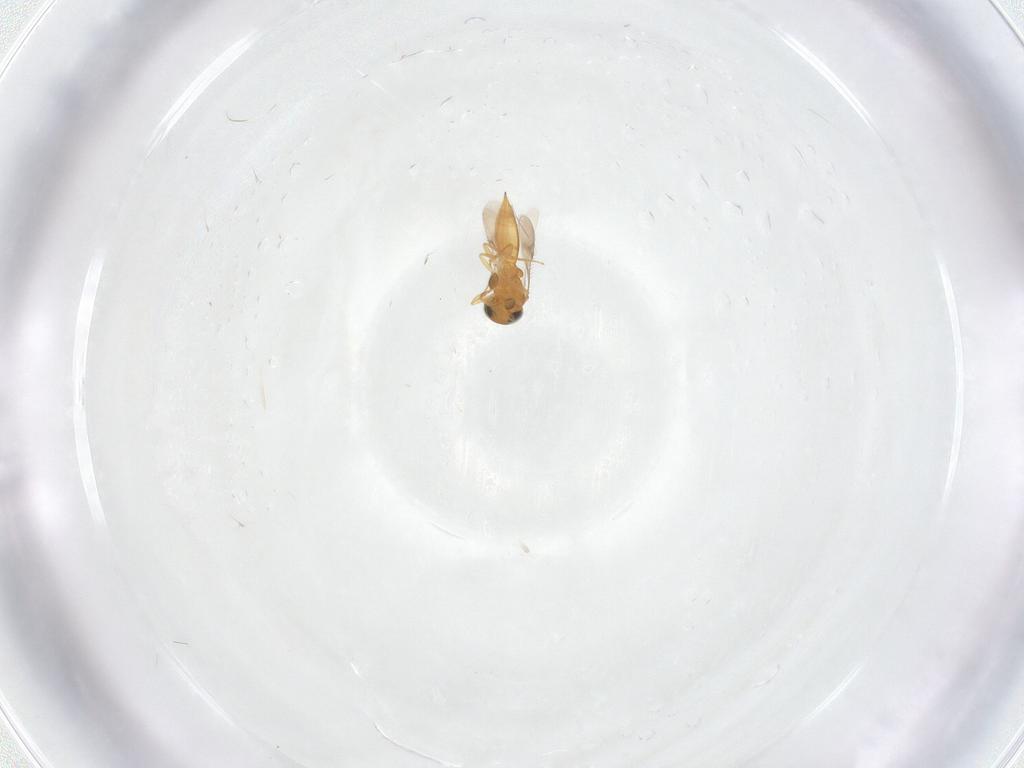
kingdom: Animalia
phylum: Arthropoda
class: Insecta
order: Hymenoptera
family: Scelionidae
